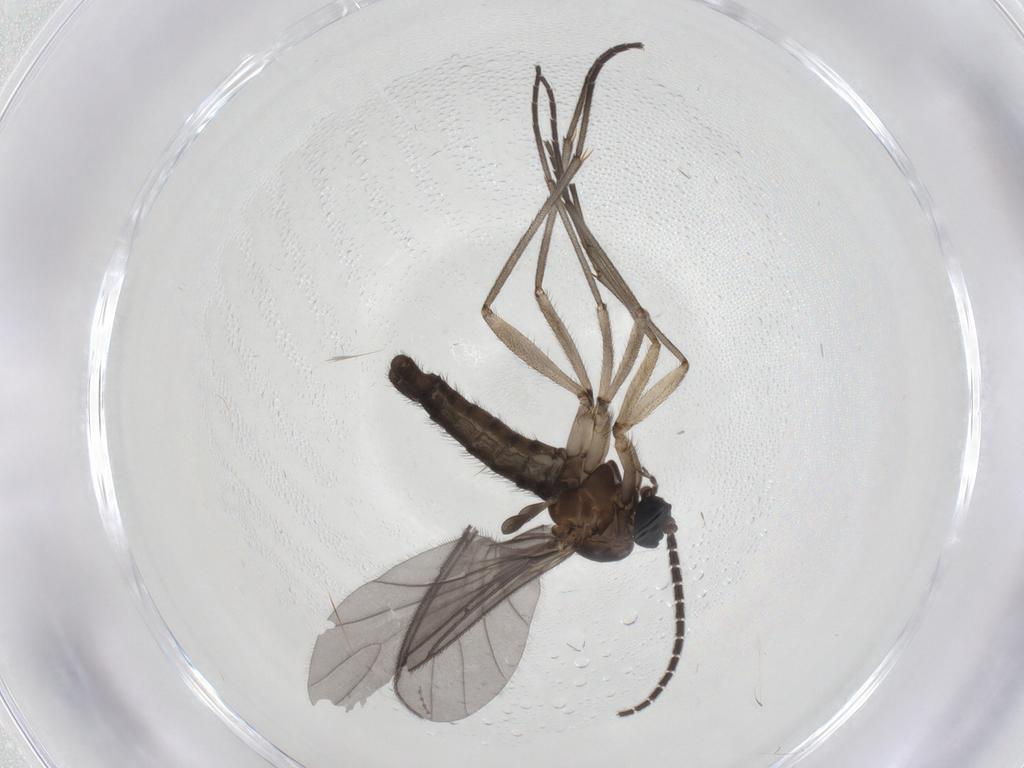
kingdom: Animalia
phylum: Arthropoda
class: Insecta
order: Diptera
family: Sciaridae
